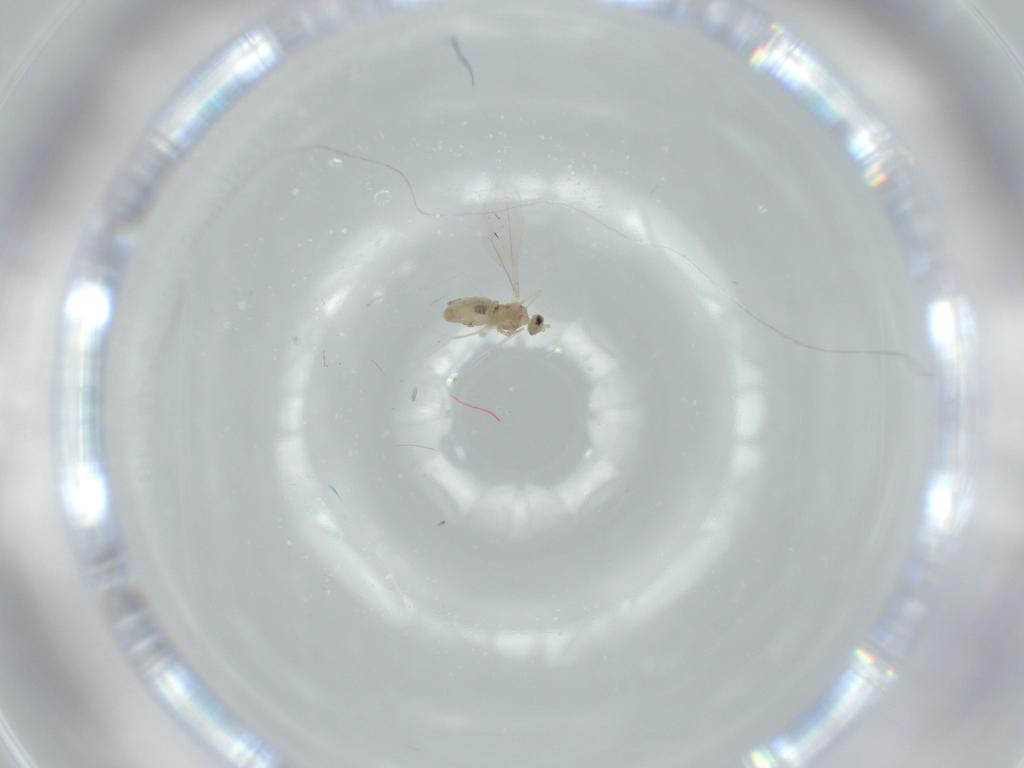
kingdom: Animalia
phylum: Arthropoda
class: Insecta
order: Diptera
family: Cecidomyiidae
